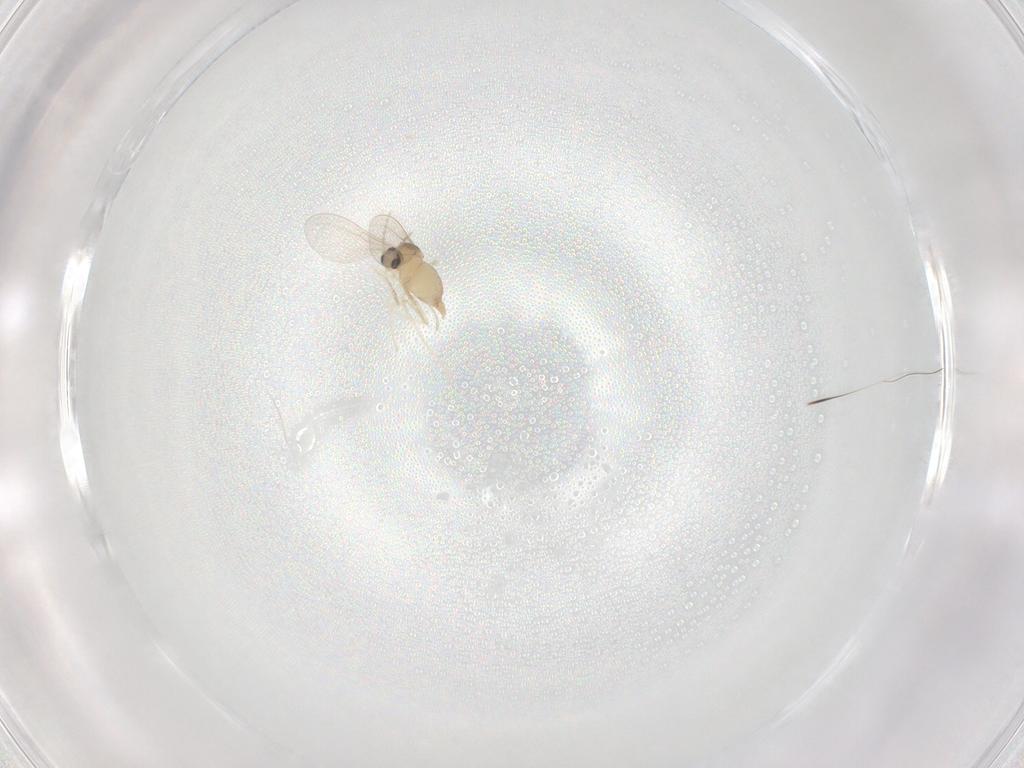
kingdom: Animalia
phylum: Arthropoda
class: Insecta
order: Diptera
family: Cecidomyiidae
